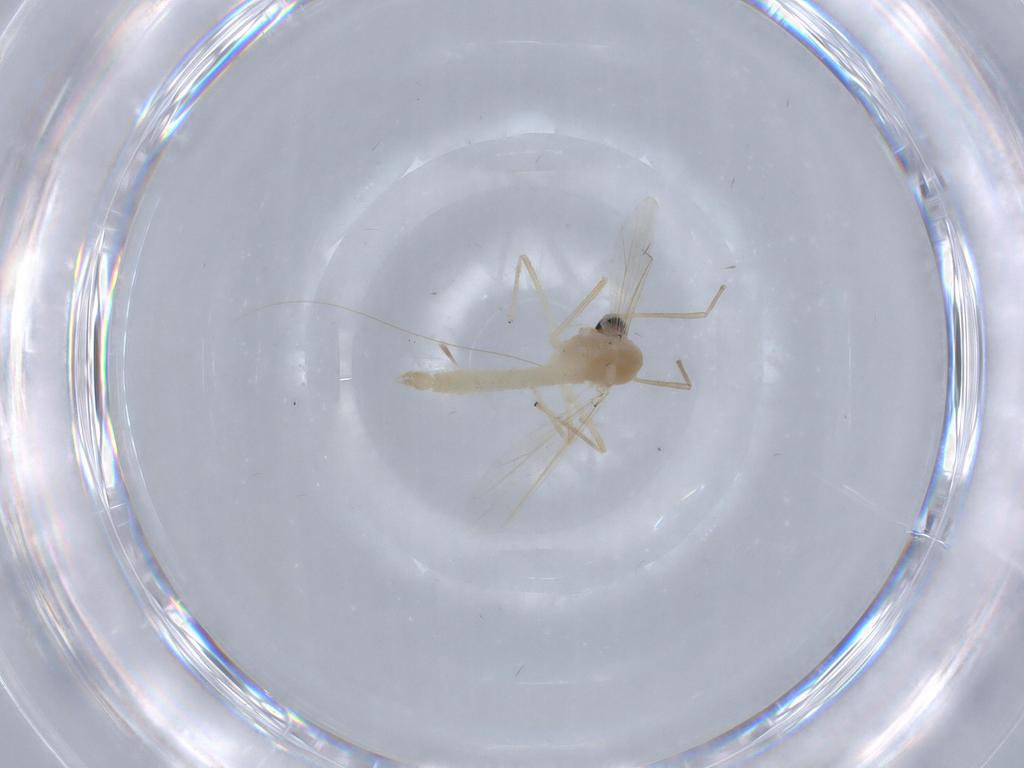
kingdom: Animalia
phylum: Arthropoda
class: Insecta
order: Diptera
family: Chironomidae
